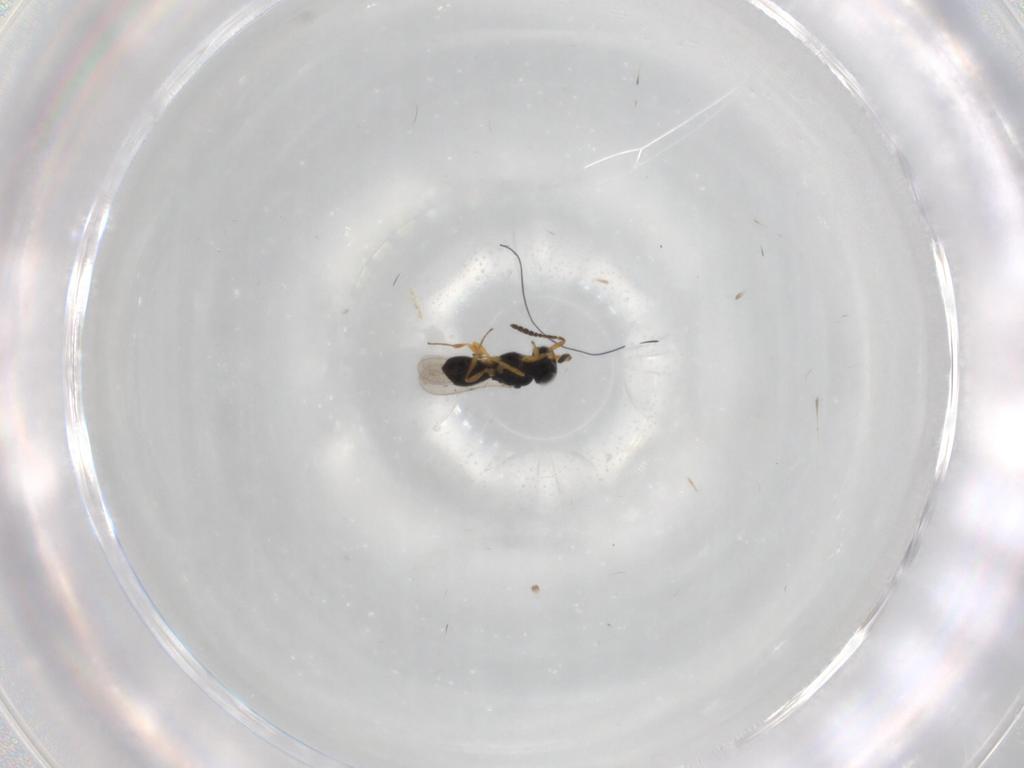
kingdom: Animalia
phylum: Arthropoda
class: Insecta
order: Hymenoptera
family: Scelionidae
